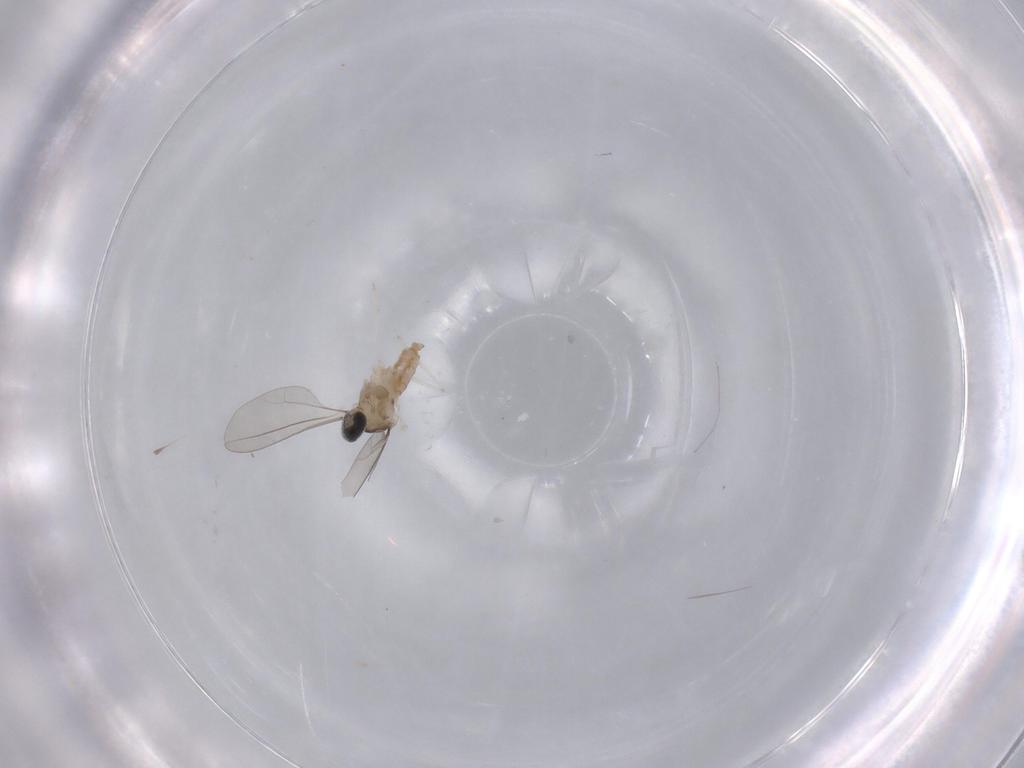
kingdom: Animalia
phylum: Arthropoda
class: Insecta
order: Diptera
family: Cecidomyiidae
